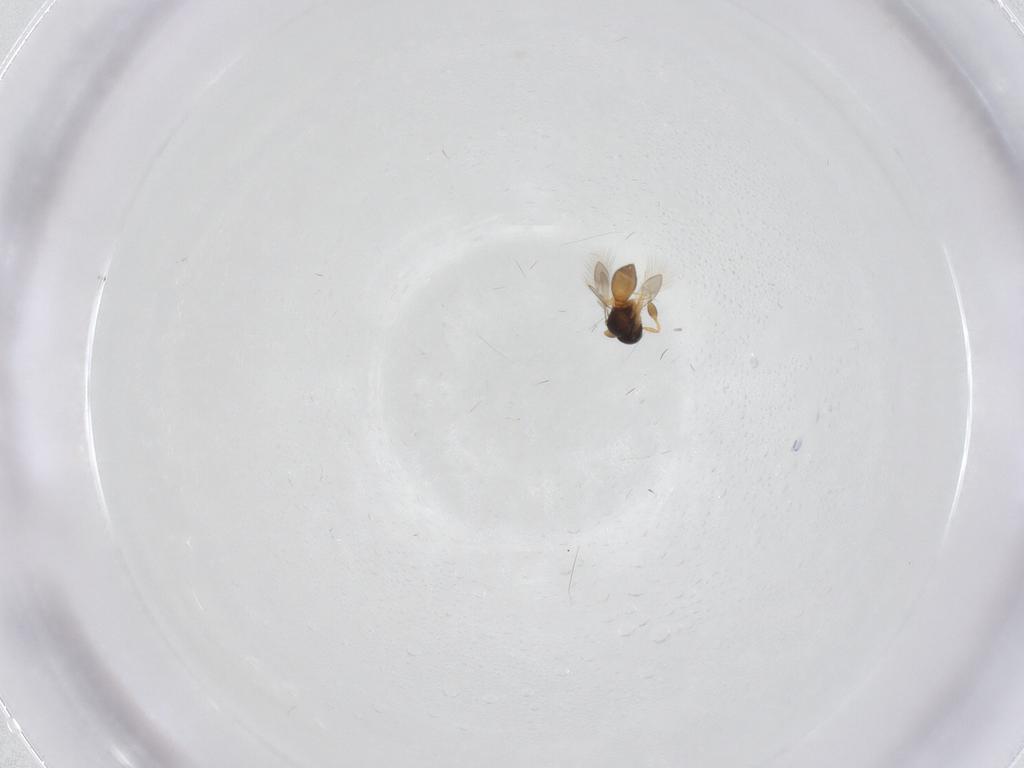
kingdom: Animalia
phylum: Arthropoda
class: Insecta
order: Hymenoptera
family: Scelionidae
